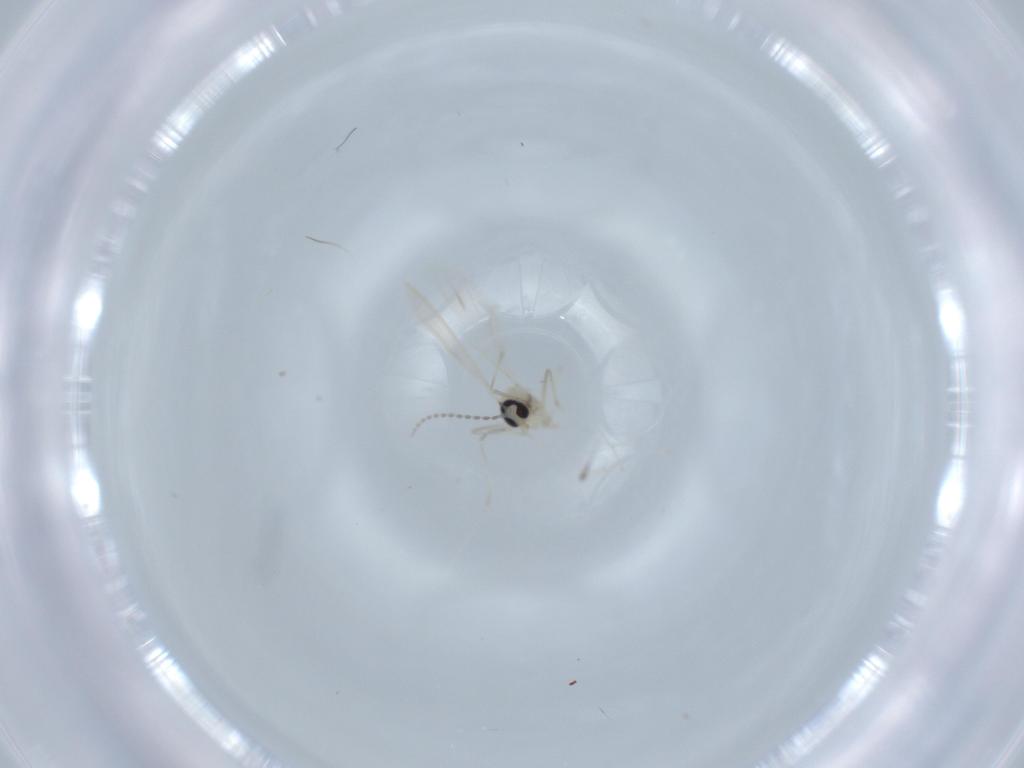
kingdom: Animalia
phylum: Arthropoda
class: Insecta
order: Diptera
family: Cecidomyiidae
